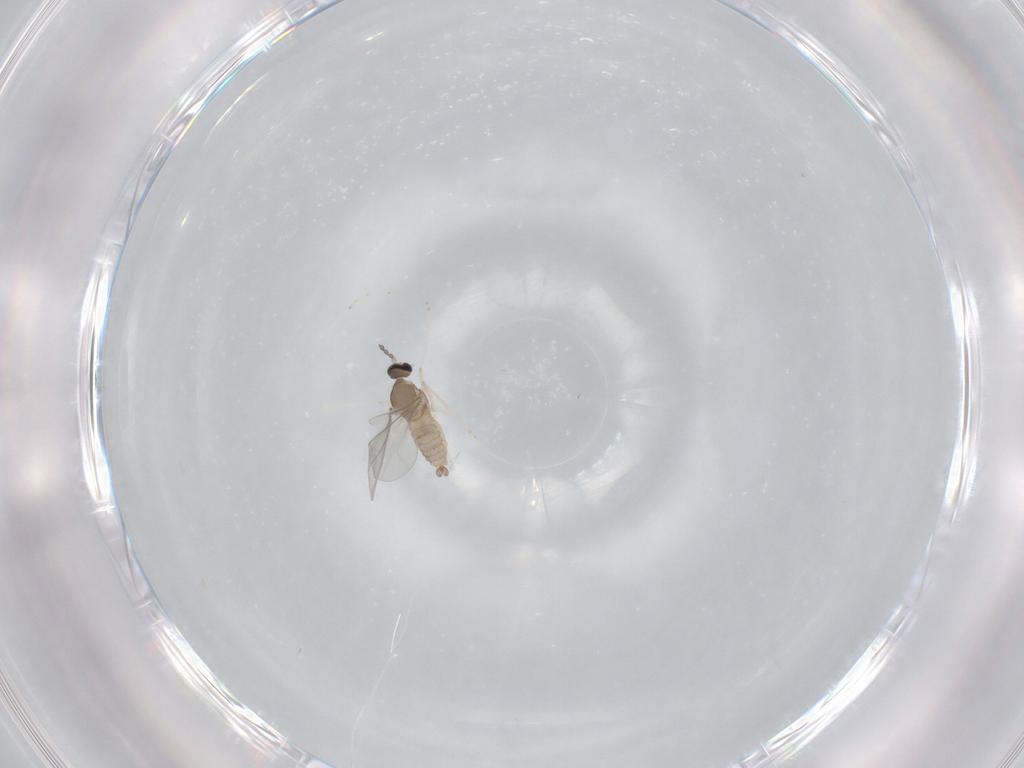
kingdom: Animalia
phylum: Arthropoda
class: Insecta
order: Diptera
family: Cecidomyiidae
